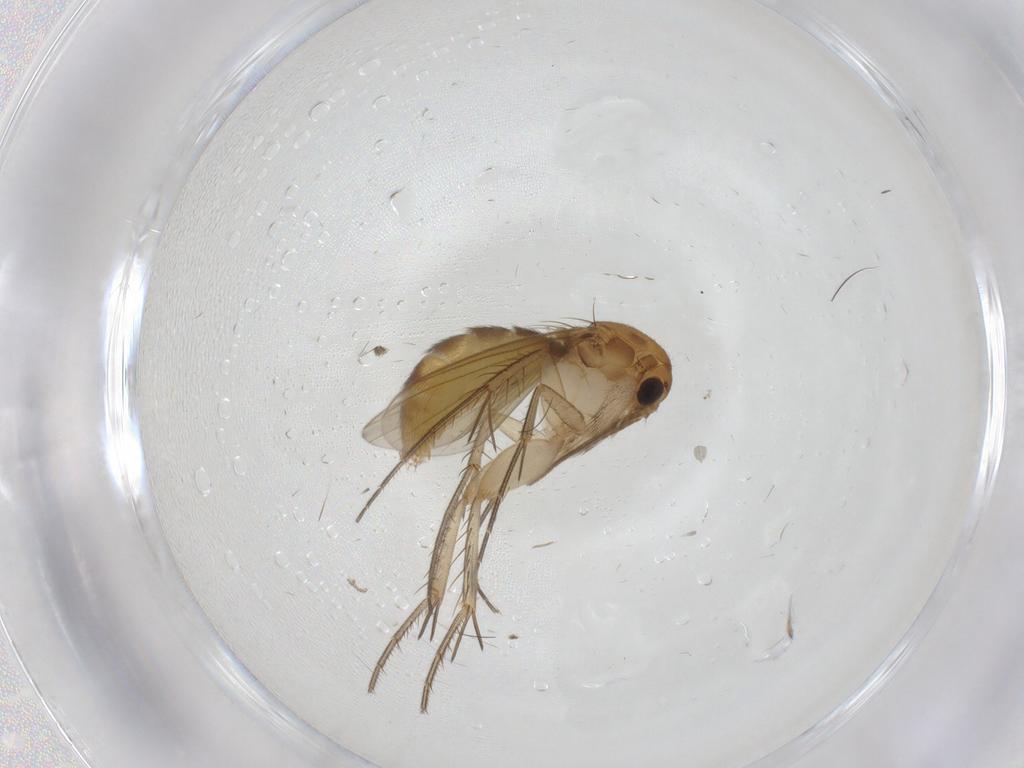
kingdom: Animalia
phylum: Arthropoda
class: Insecta
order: Diptera
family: Mycetophilidae
